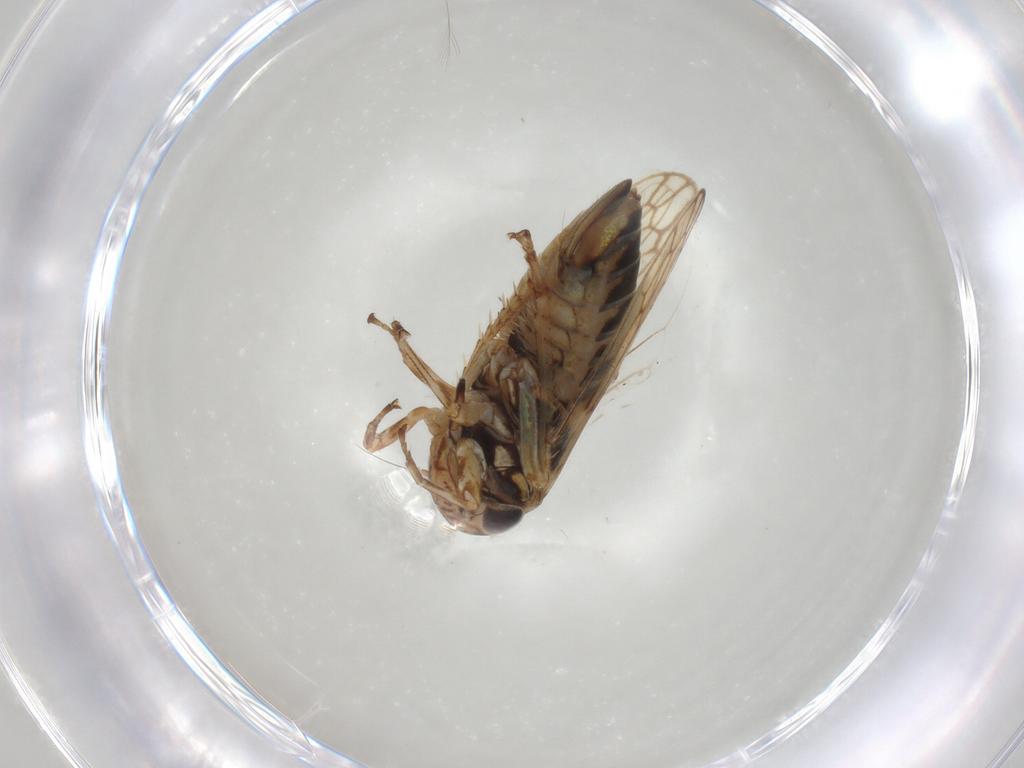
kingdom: Animalia
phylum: Arthropoda
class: Insecta
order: Hemiptera
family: Cicadellidae
